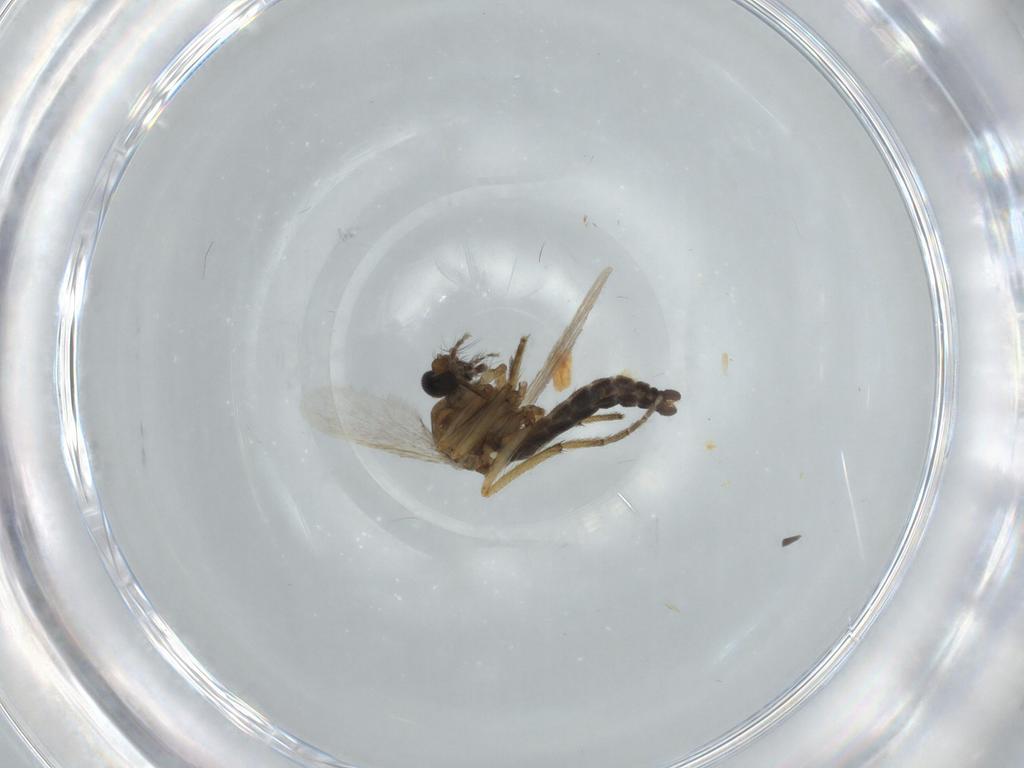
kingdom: Animalia
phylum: Arthropoda
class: Insecta
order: Diptera
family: Ceratopogonidae
